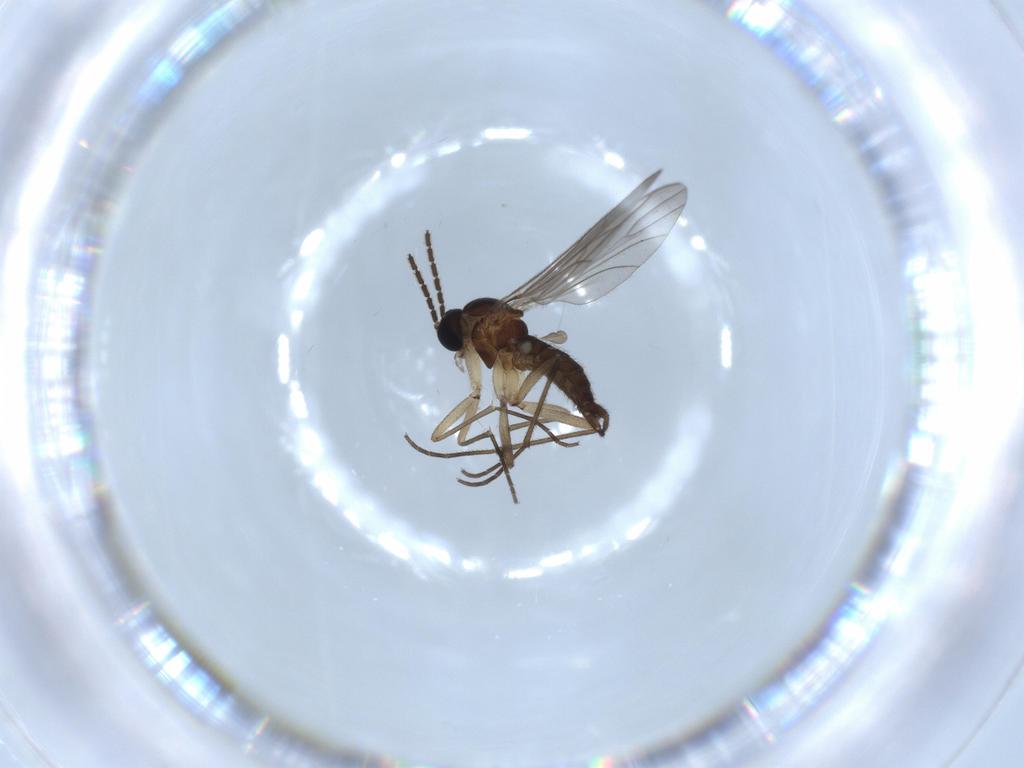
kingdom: Animalia
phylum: Arthropoda
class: Insecta
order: Diptera
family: Sciaridae
